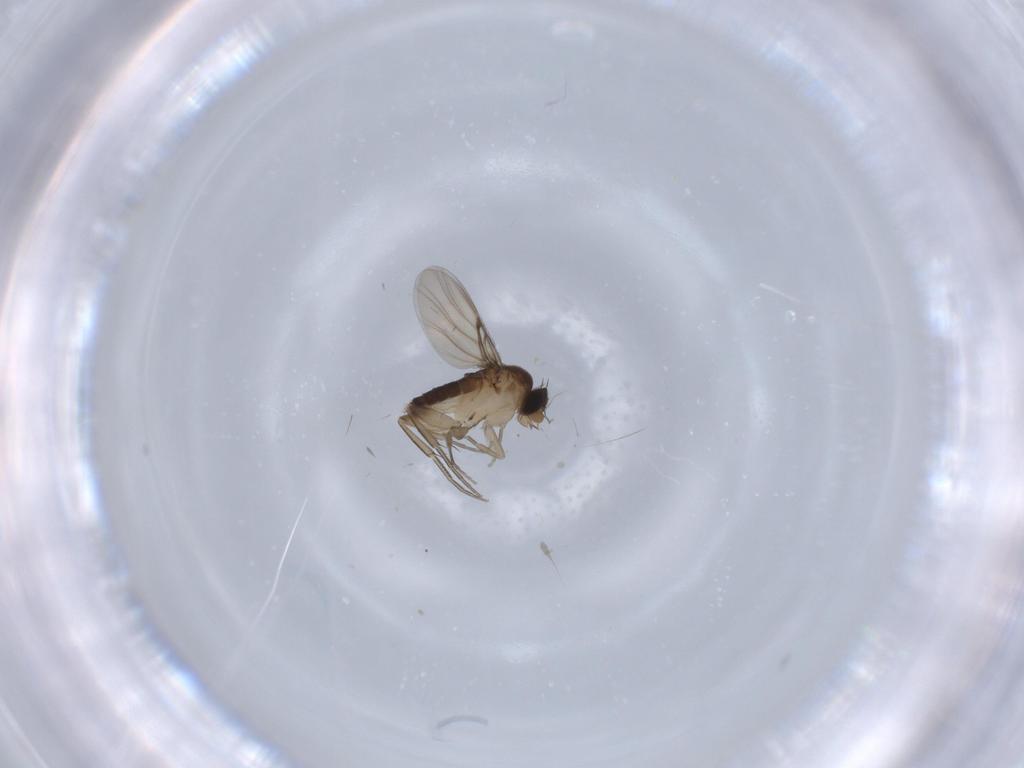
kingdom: Animalia
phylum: Arthropoda
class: Insecta
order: Diptera
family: Phoridae
